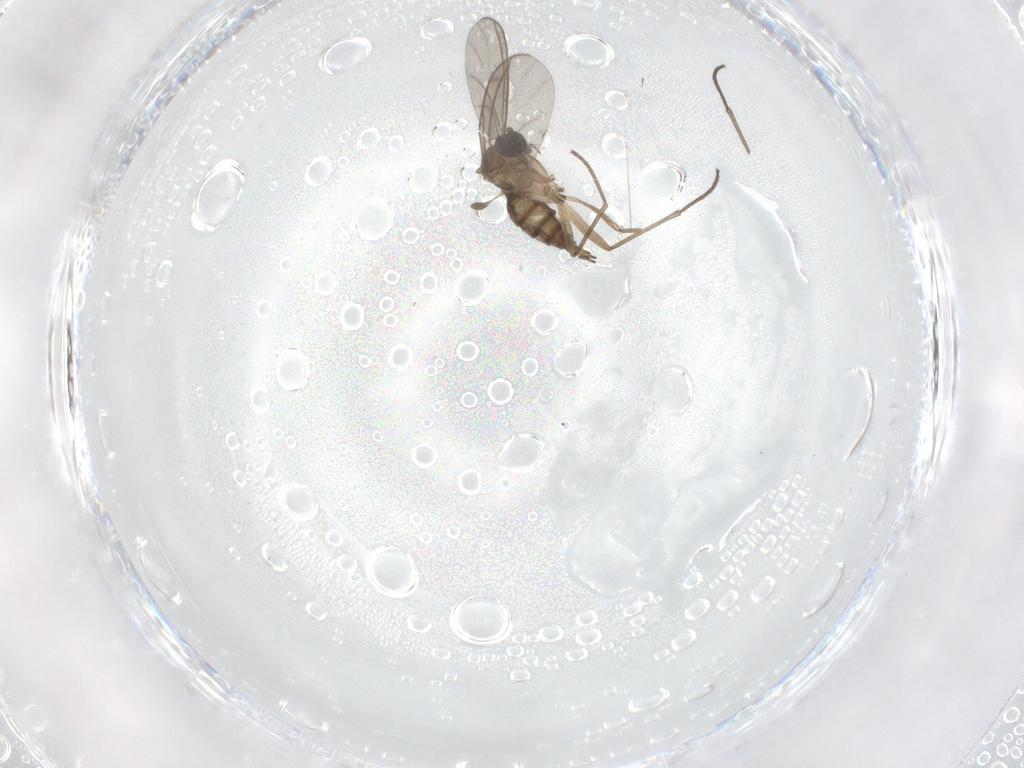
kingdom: Animalia
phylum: Arthropoda
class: Insecta
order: Diptera
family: Sciaridae
